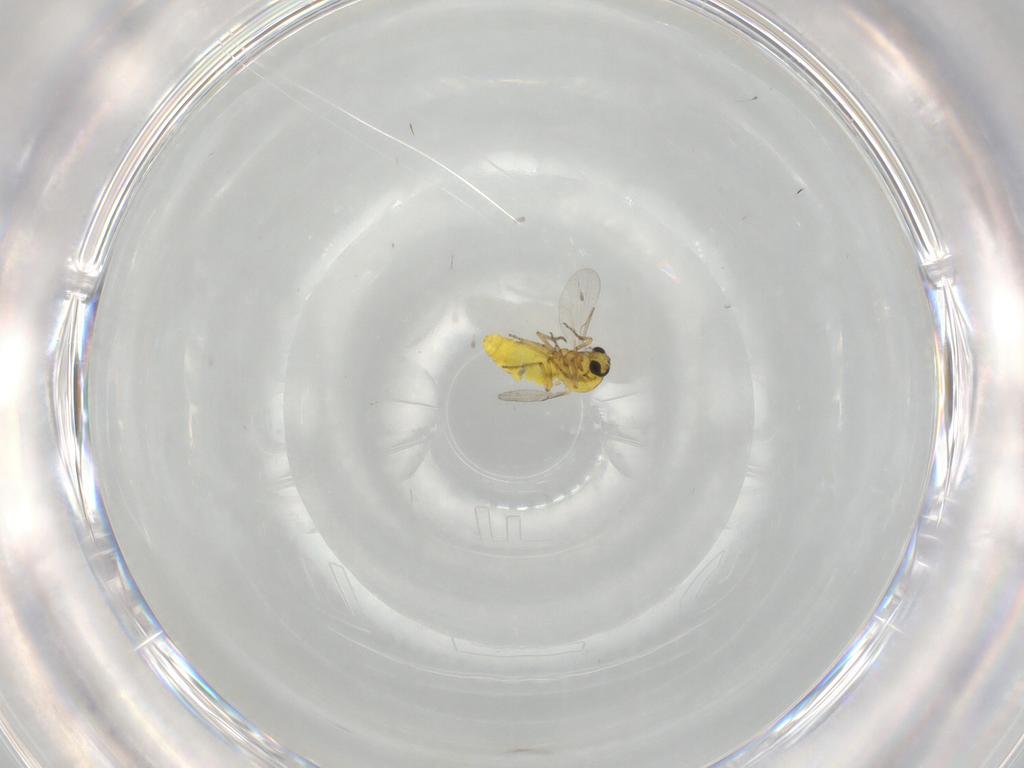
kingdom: Animalia
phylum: Arthropoda
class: Insecta
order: Diptera
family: Ceratopogonidae
